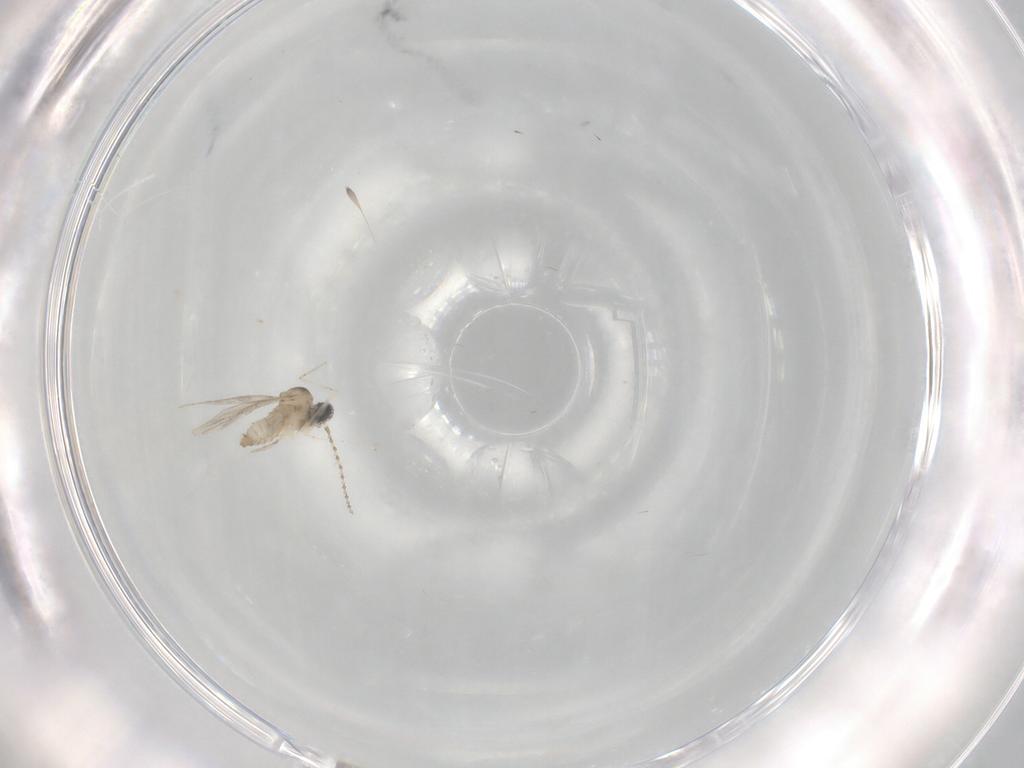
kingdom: Animalia
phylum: Arthropoda
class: Insecta
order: Diptera
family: Cecidomyiidae
